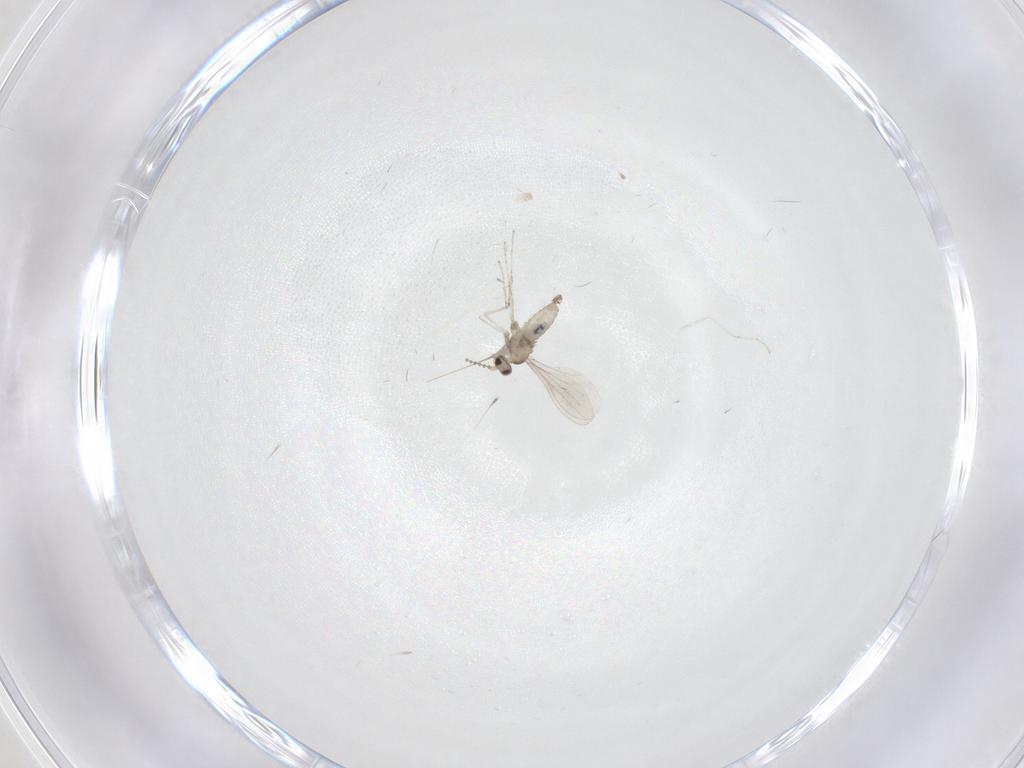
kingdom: Animalia
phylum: Arthropoda
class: Insecta
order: Diptera
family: Cecidomyiidae
